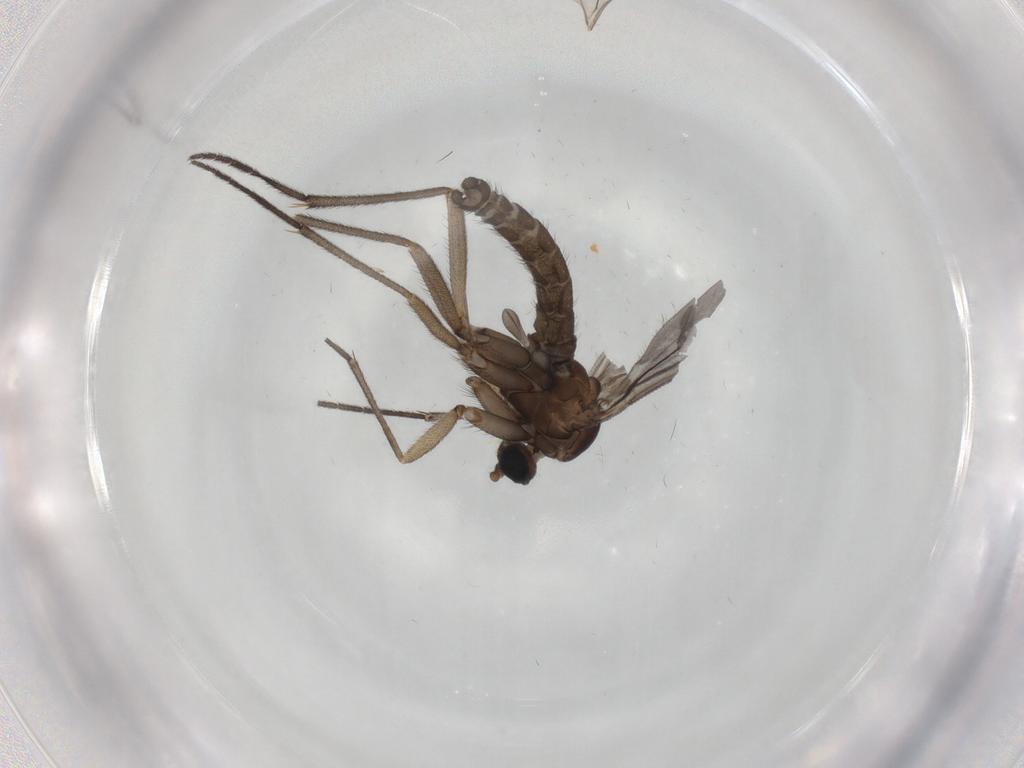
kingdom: Animalia
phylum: Arthropoda
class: Insecta
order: Diptera
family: Sciaridae
